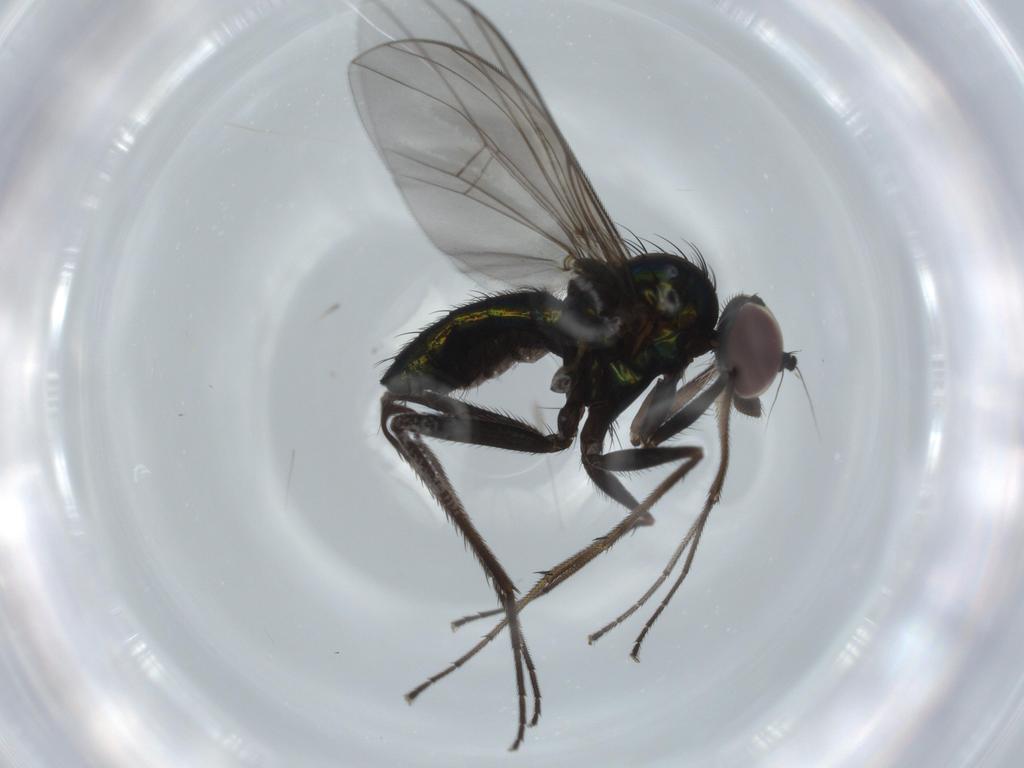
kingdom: Animalia
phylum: Arthropoda
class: Insecta
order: Diptera
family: Dolichopodidae
